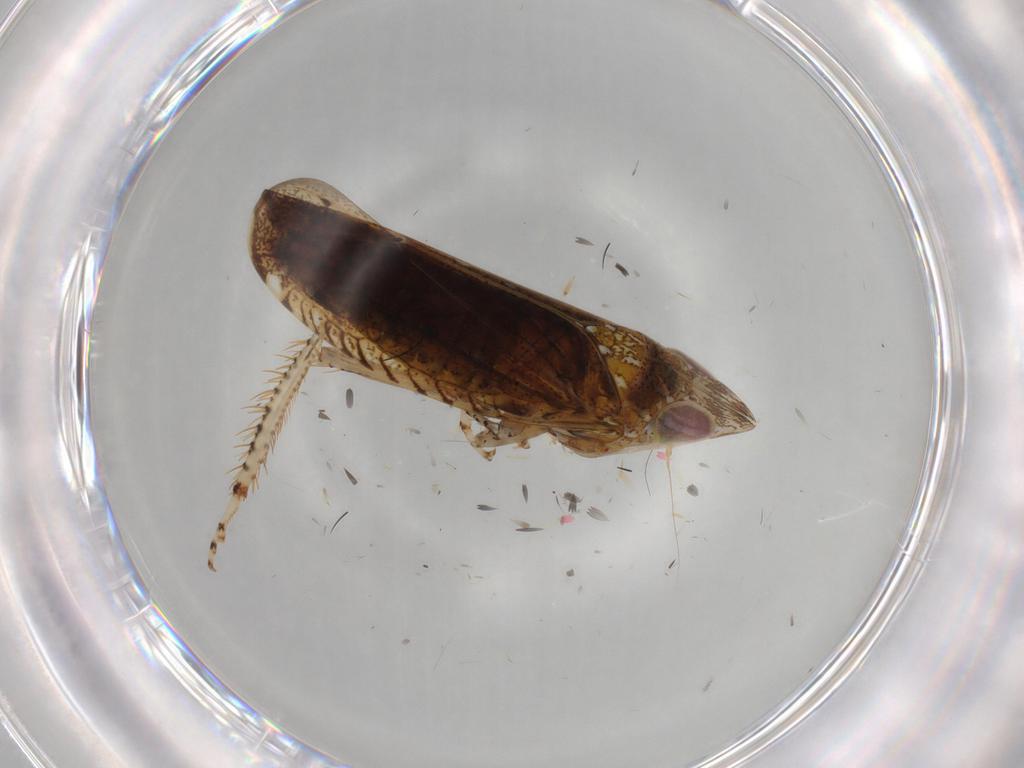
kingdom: Animalia
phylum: Arthropoda
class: Insecta
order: Hemiptera
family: Cicadellidae
